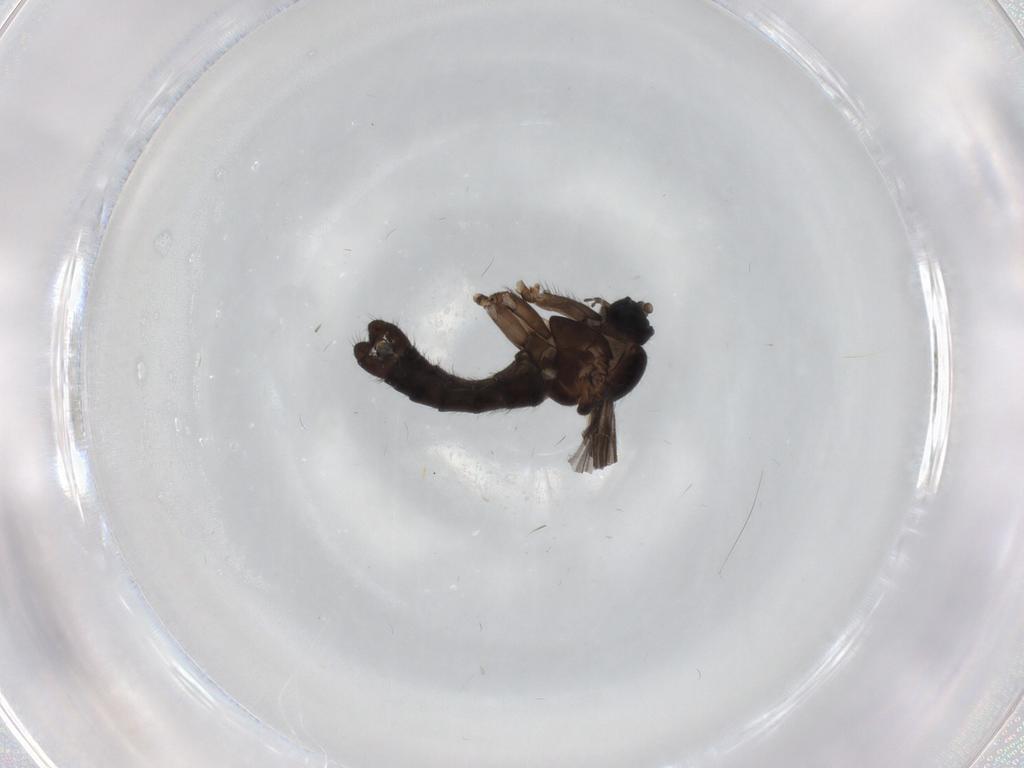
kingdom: Animalia
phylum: Arthropoda
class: Insecta
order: Diptera
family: Sciaridae
